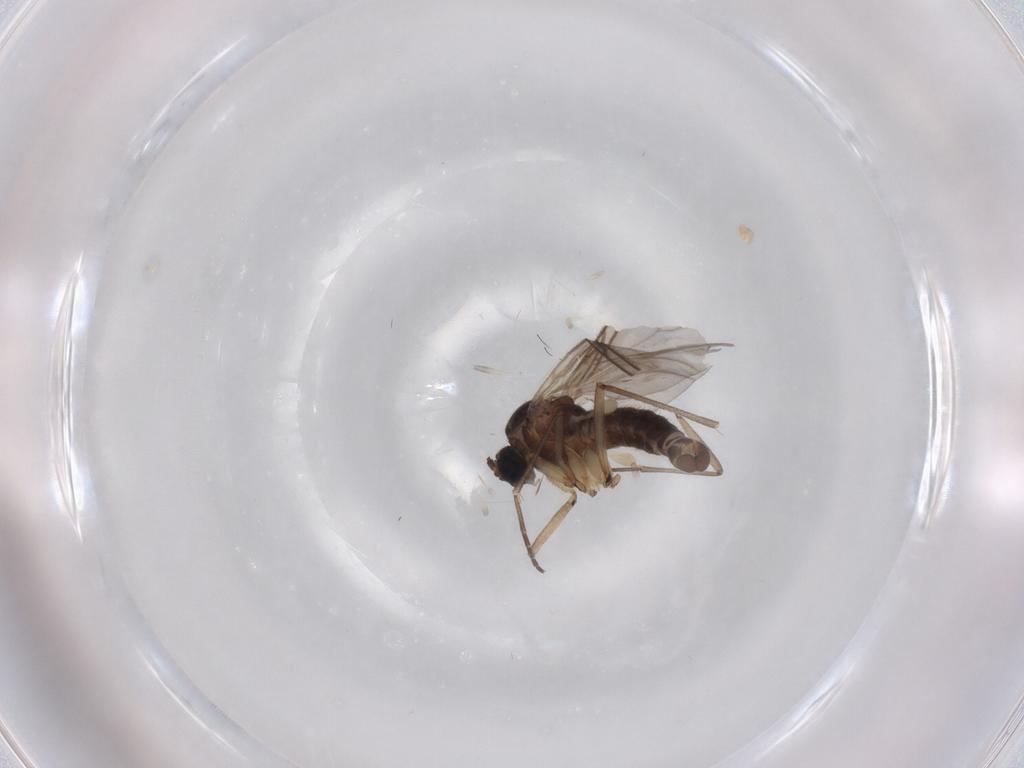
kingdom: Animalia
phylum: Arthropoda
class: Insecta
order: Diptera
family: Sciaridae
